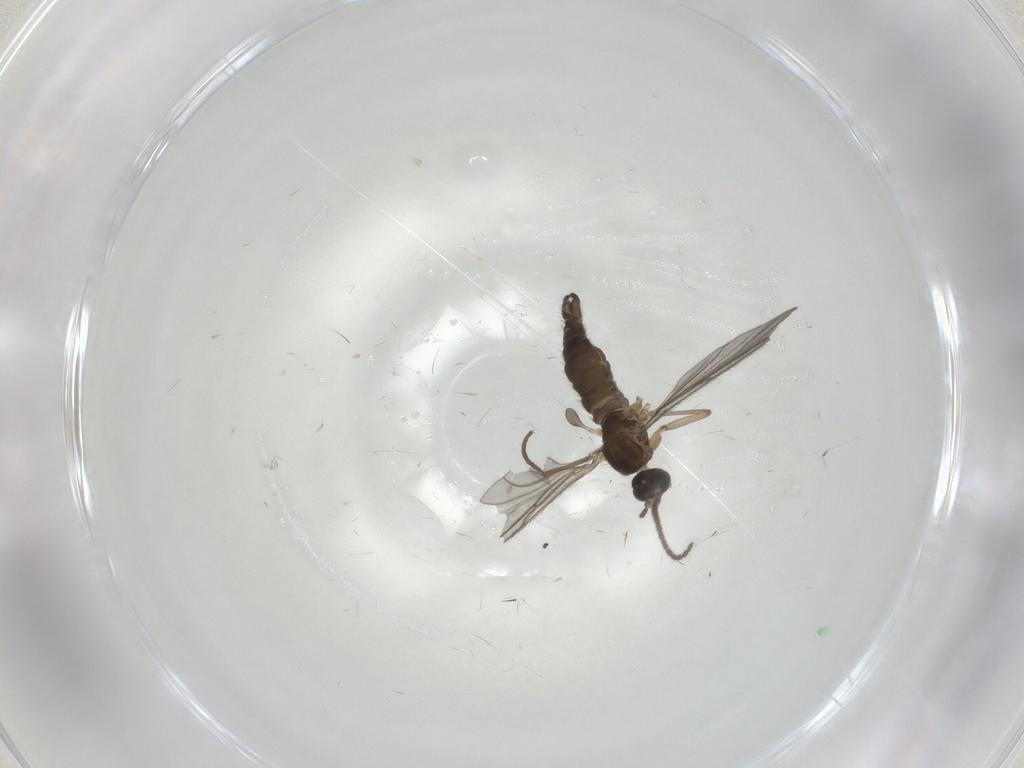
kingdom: Animalia
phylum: Arthropoda
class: Insecta
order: Diptera
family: Sciaridae
